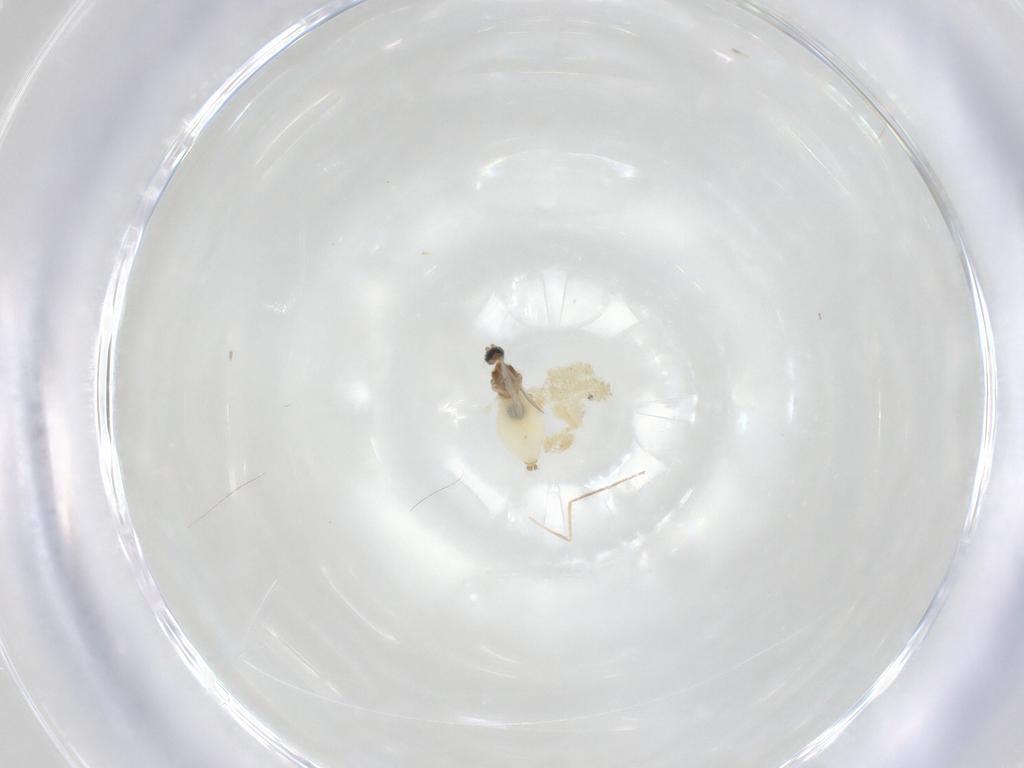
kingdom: Animalia
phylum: Arthropoda
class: Insecta
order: Diptera
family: Cecidomyiidae
